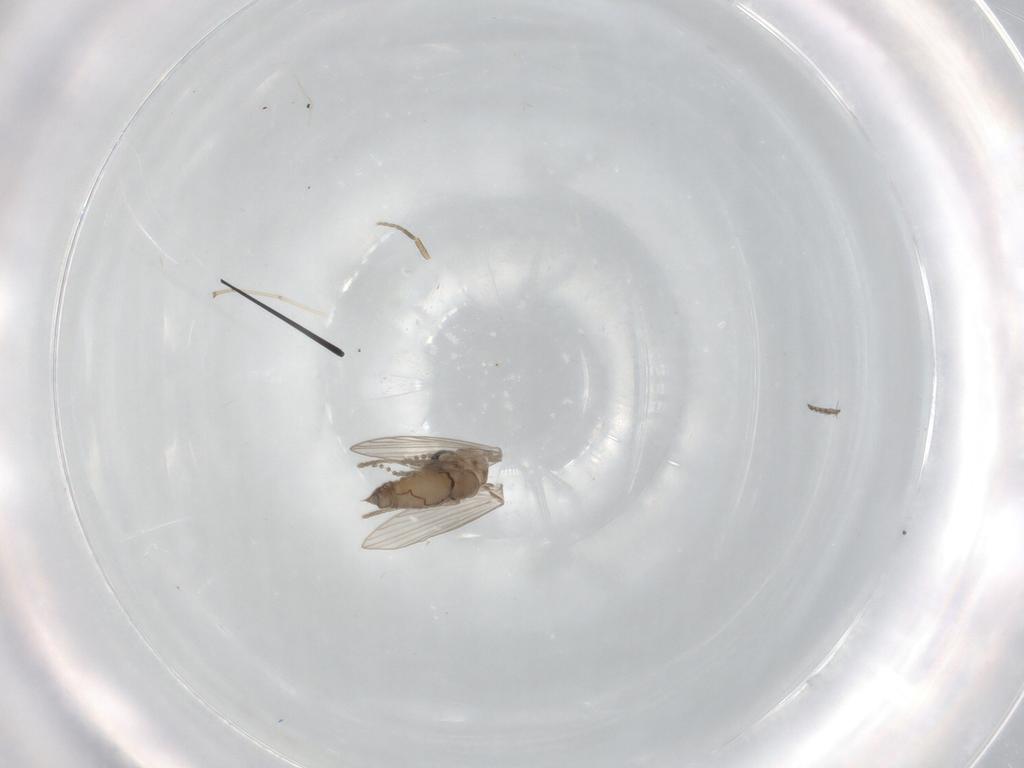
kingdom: Animalia
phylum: Arthropoda
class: Insecta
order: Diptera
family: Psychodidae
